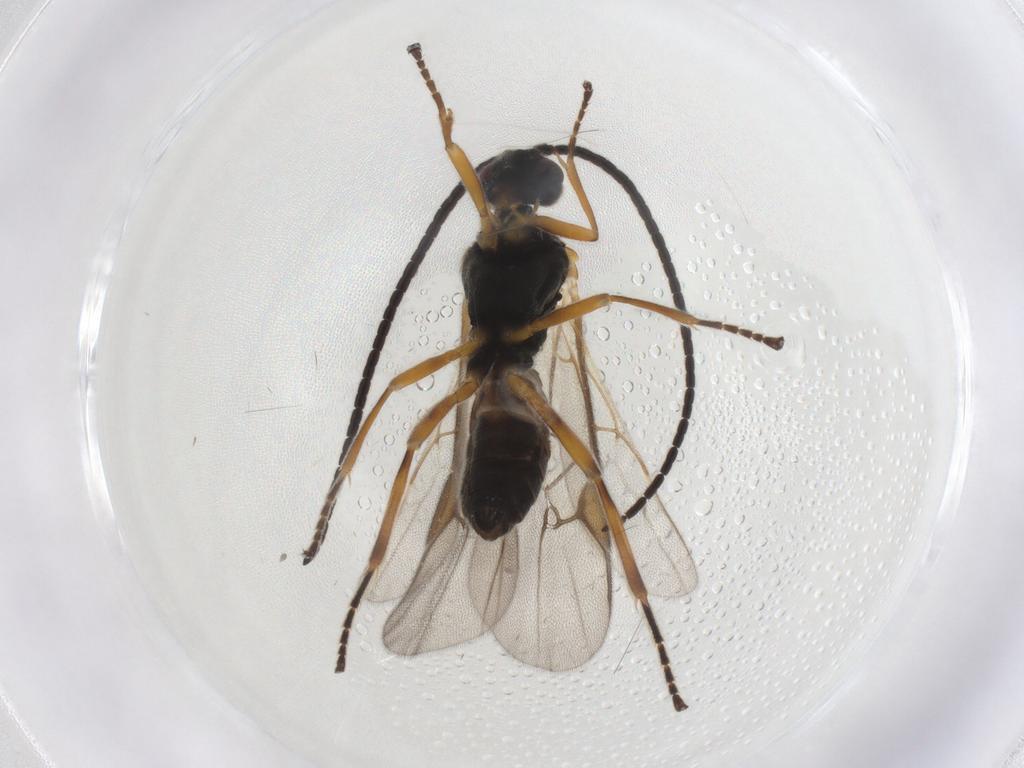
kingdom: Animalia
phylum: Arthropoda
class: Insecta
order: Hymenoptera
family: Braconidae
